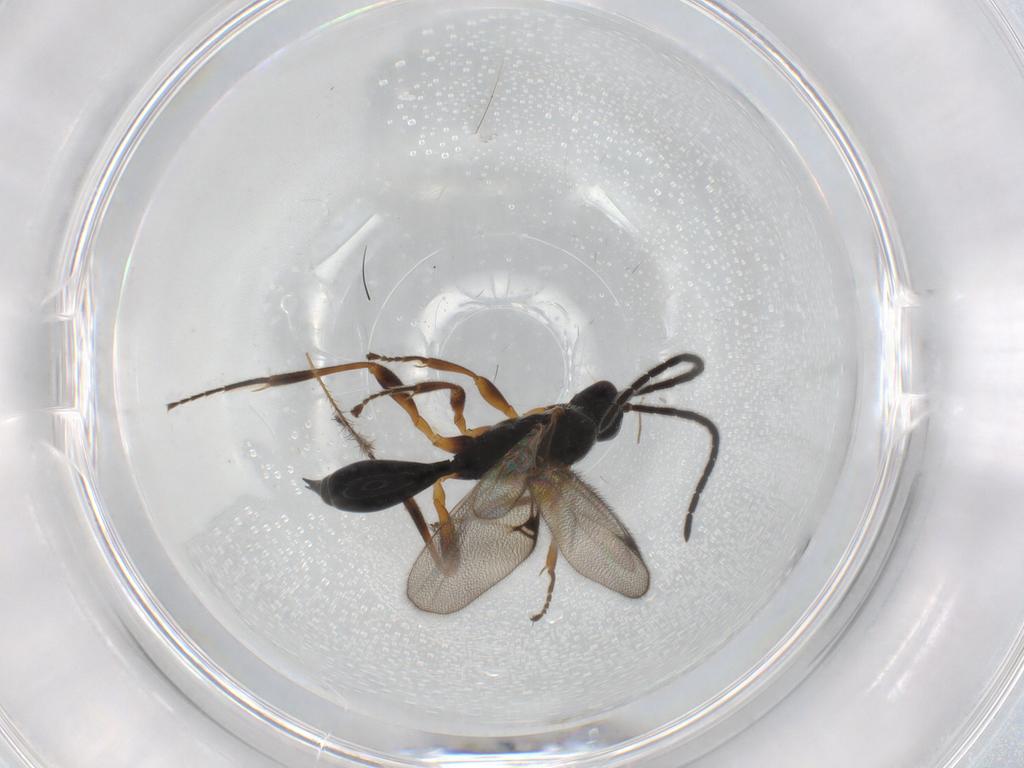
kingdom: Animalia
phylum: Arthropoda
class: Insecta
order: Hymenoptera
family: Proctotrupidae
